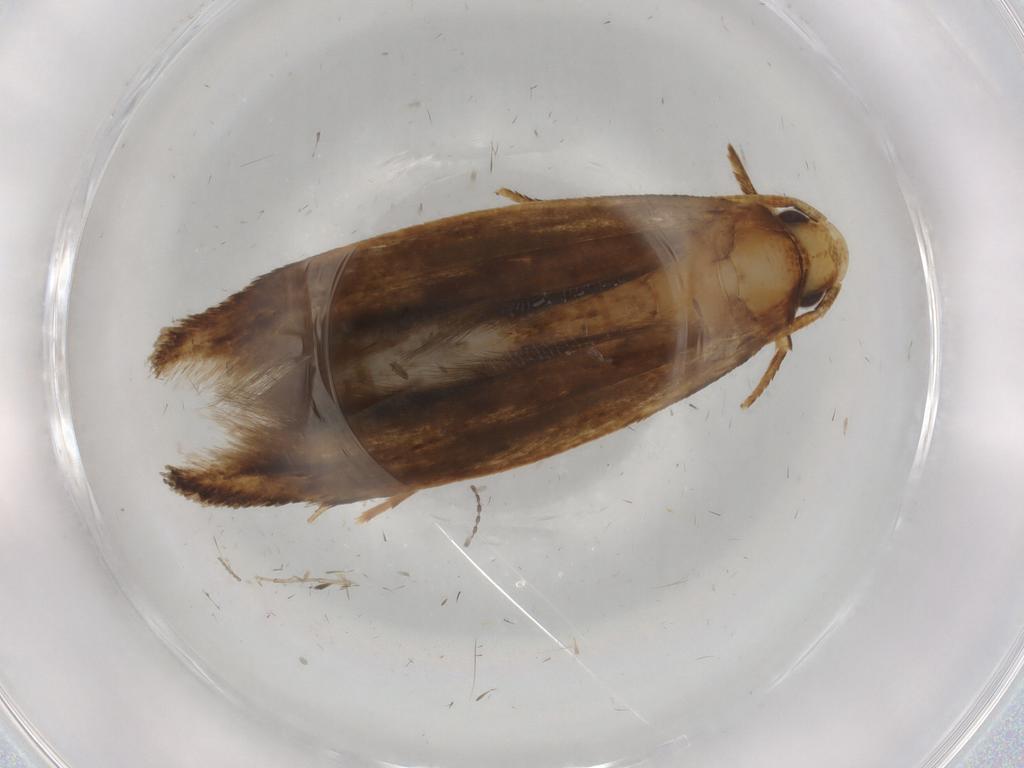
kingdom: Animalia
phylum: Arthropoda
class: Insecta
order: Lepidoptera
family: Tineidae
